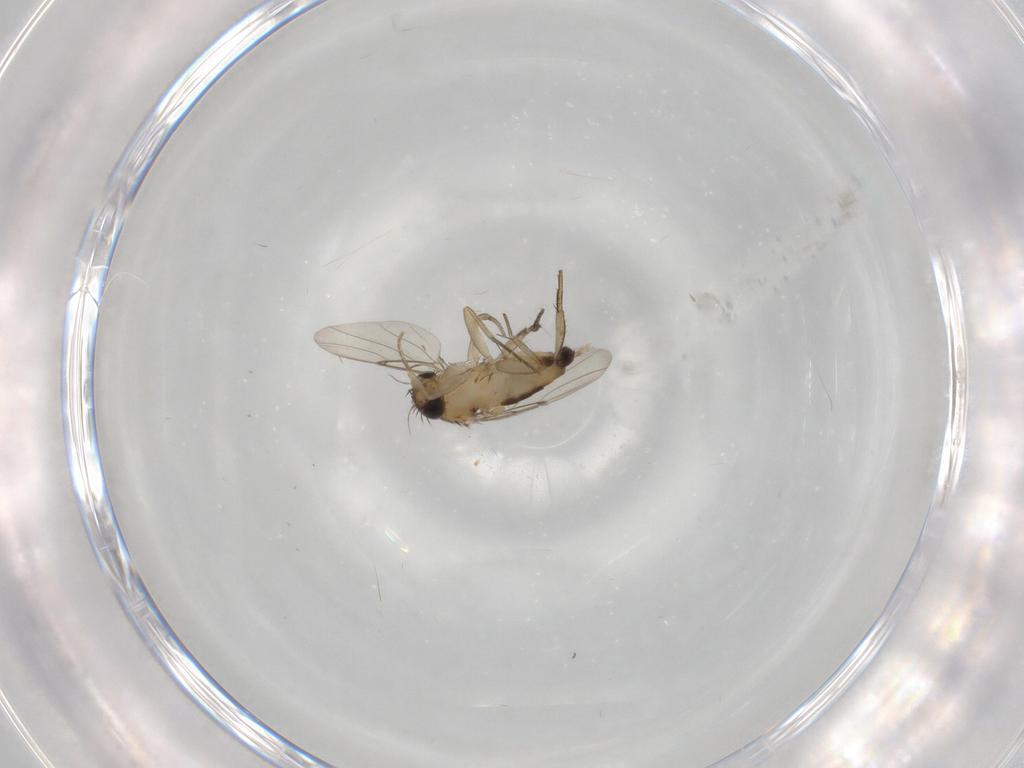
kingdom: Animalia
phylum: Arthropoda
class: Insecta
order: Diptera
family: Phoridae
